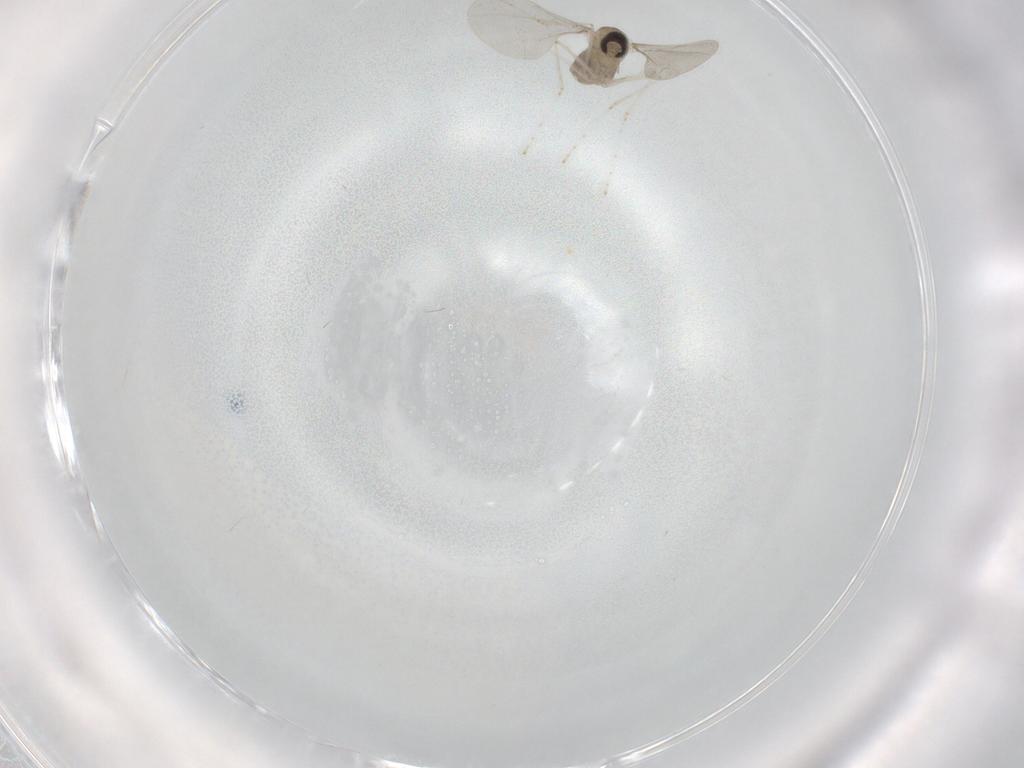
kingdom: Animalia
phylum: Arthropoda
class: Insecta
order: Diptera
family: Cecidomyiidae
